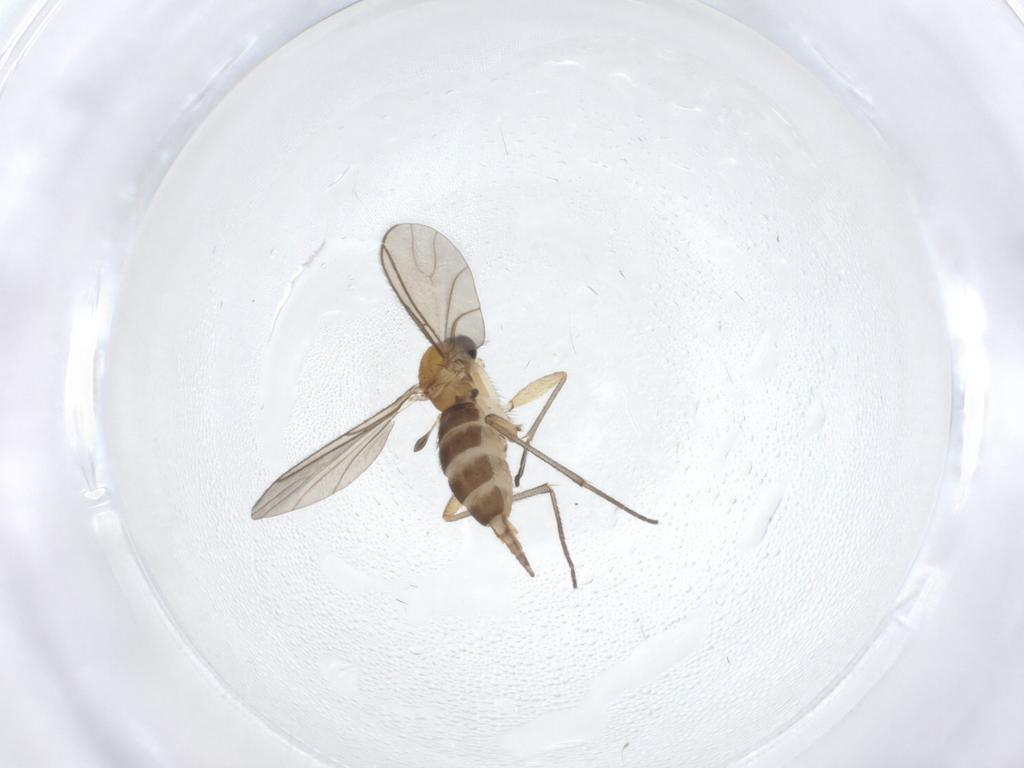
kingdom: Animalia
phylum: Arthropoda
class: Insecta
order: Diptera
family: Sciaridae
